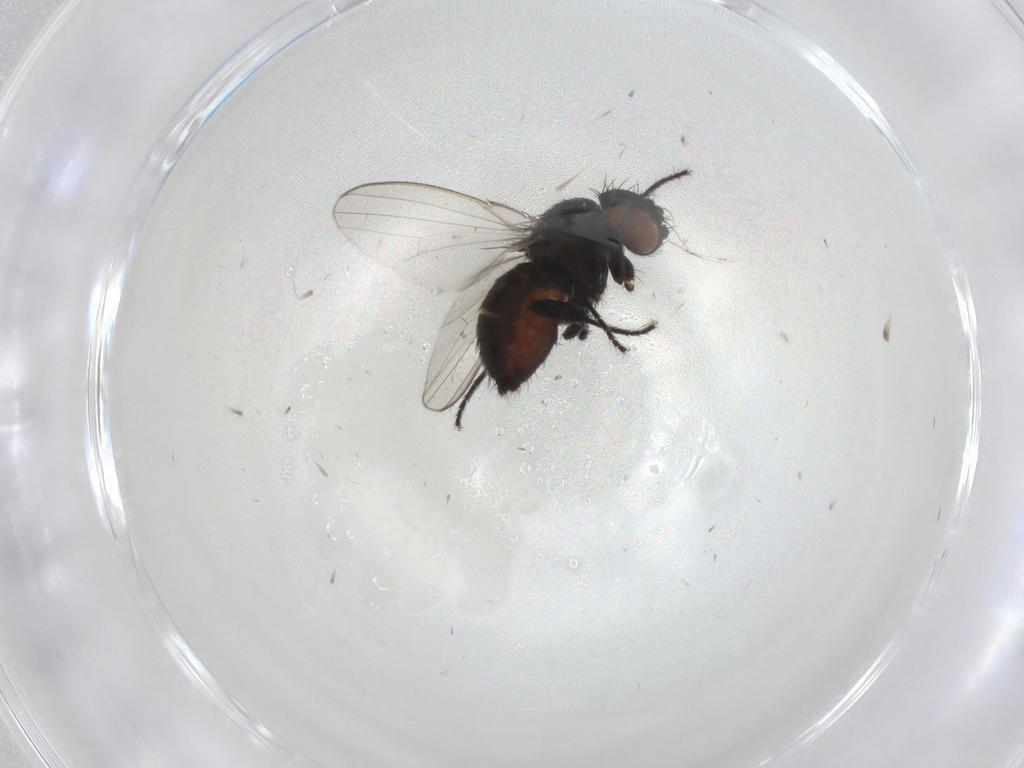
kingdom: Animalia
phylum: Arthropoda
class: Insecta
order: Diptera
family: Milichiidae
